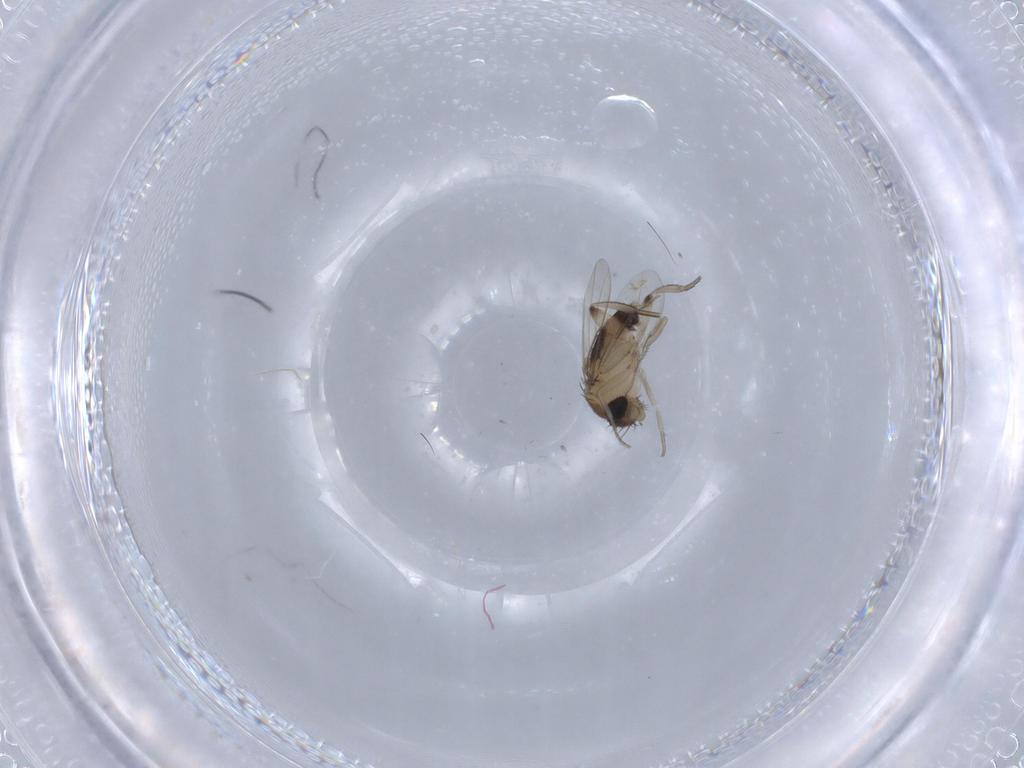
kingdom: Animalia
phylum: Arthropoda
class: Insecta
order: Diptera
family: Phoridae
